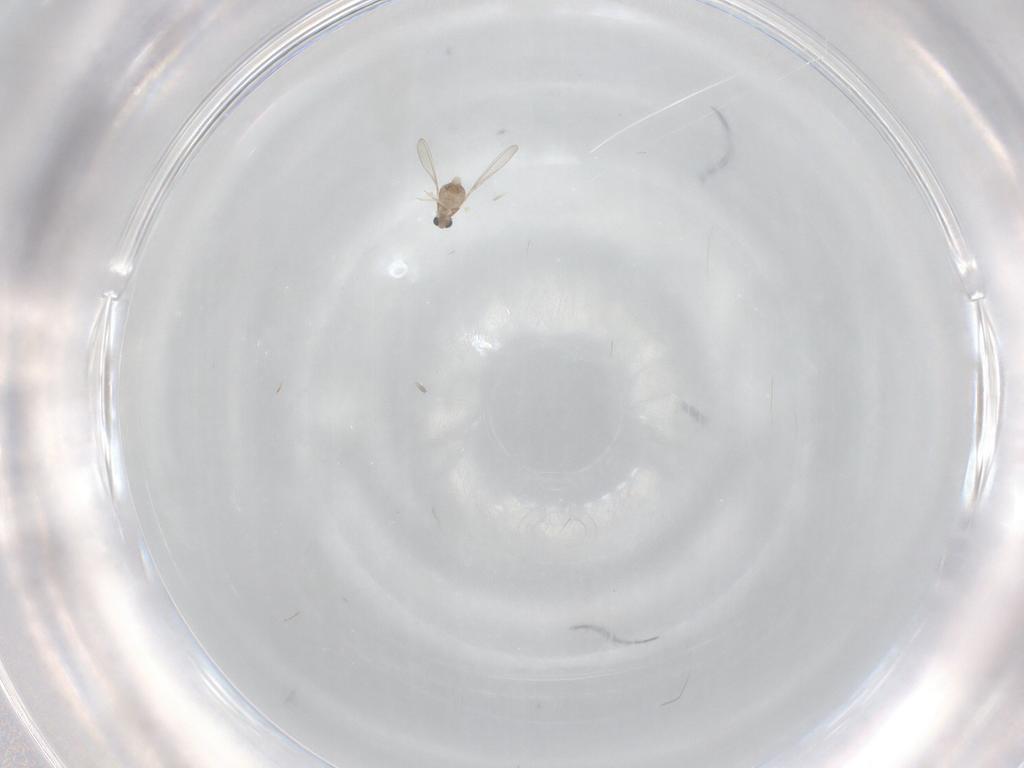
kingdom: Animalia
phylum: Arthropoda
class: Insecta
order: Diptera
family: Cecidomyiidae
